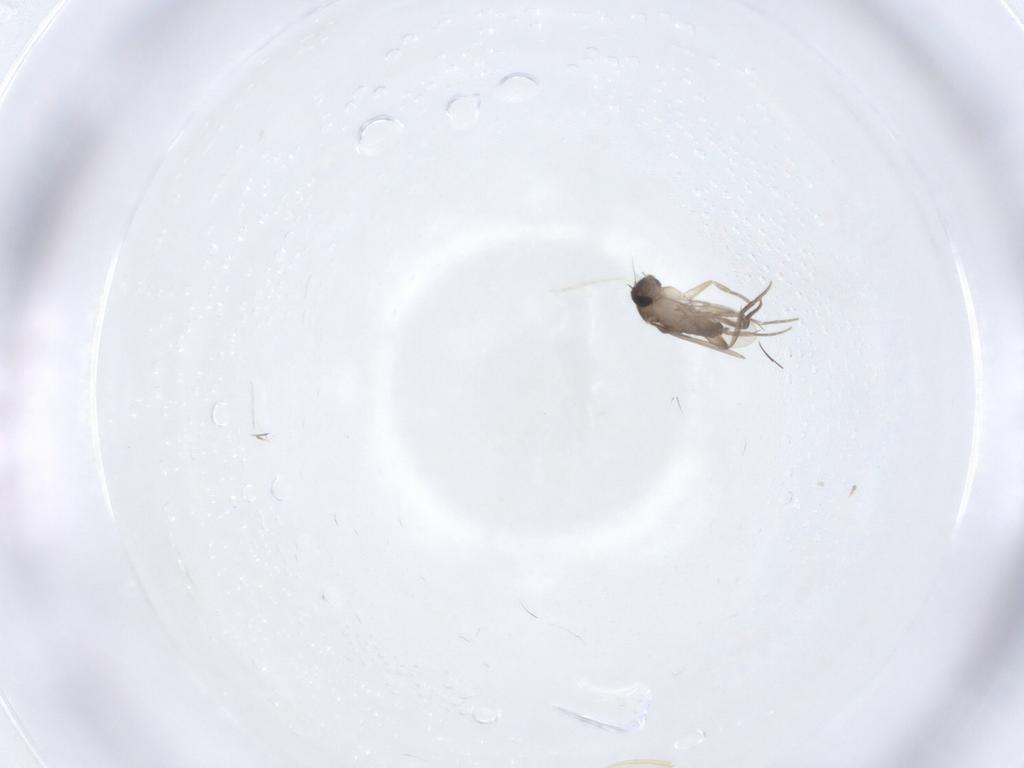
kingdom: Animalia
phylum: Arthropoda
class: Insecta
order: Diptera
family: Phoridae
